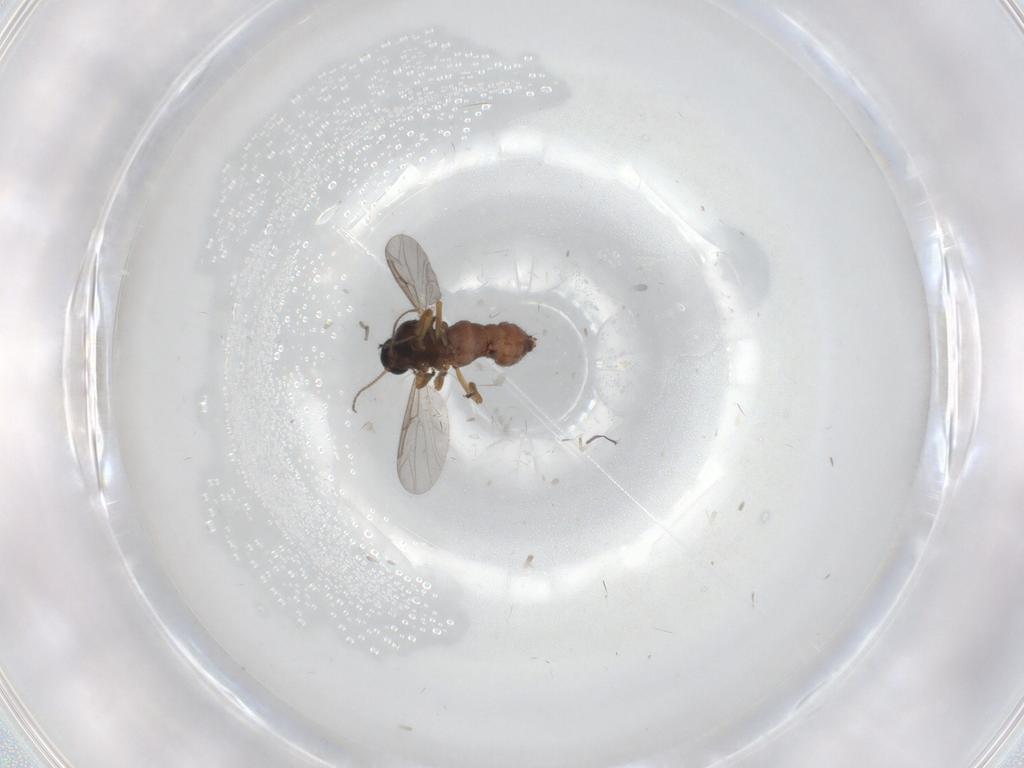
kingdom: Animalia
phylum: Arthropoda
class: Insecta
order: Diptera
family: Ceratopogonidae
